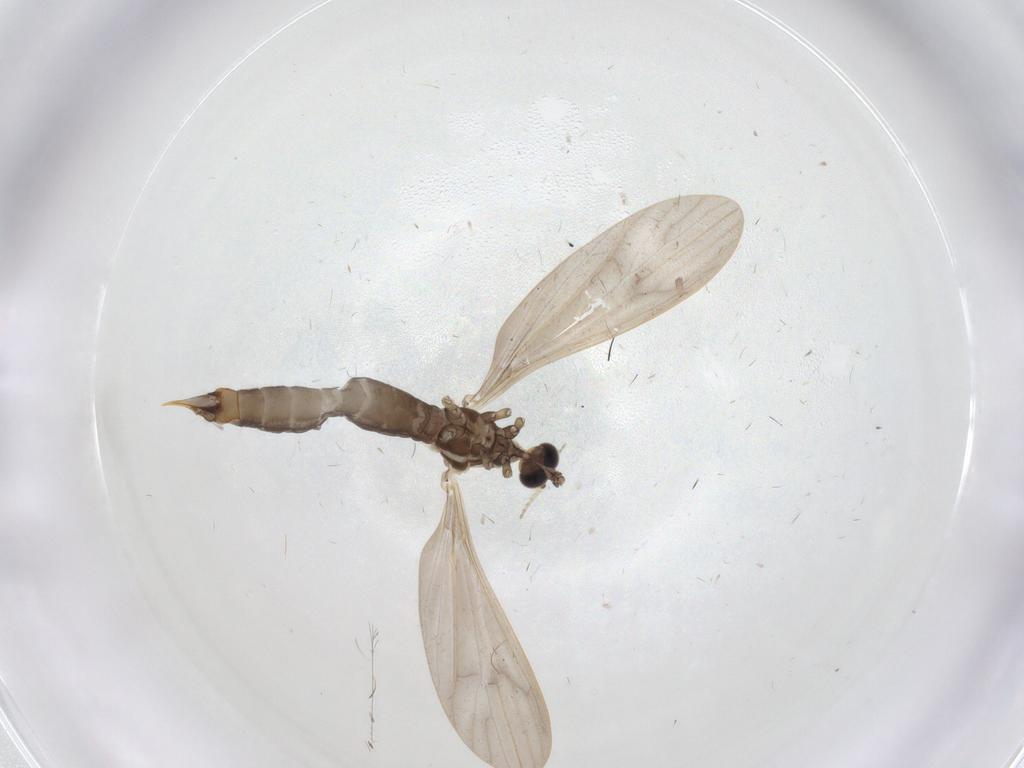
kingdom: Animalia
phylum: Arthropoda
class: Insecta
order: Diptera
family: Limoniidae
